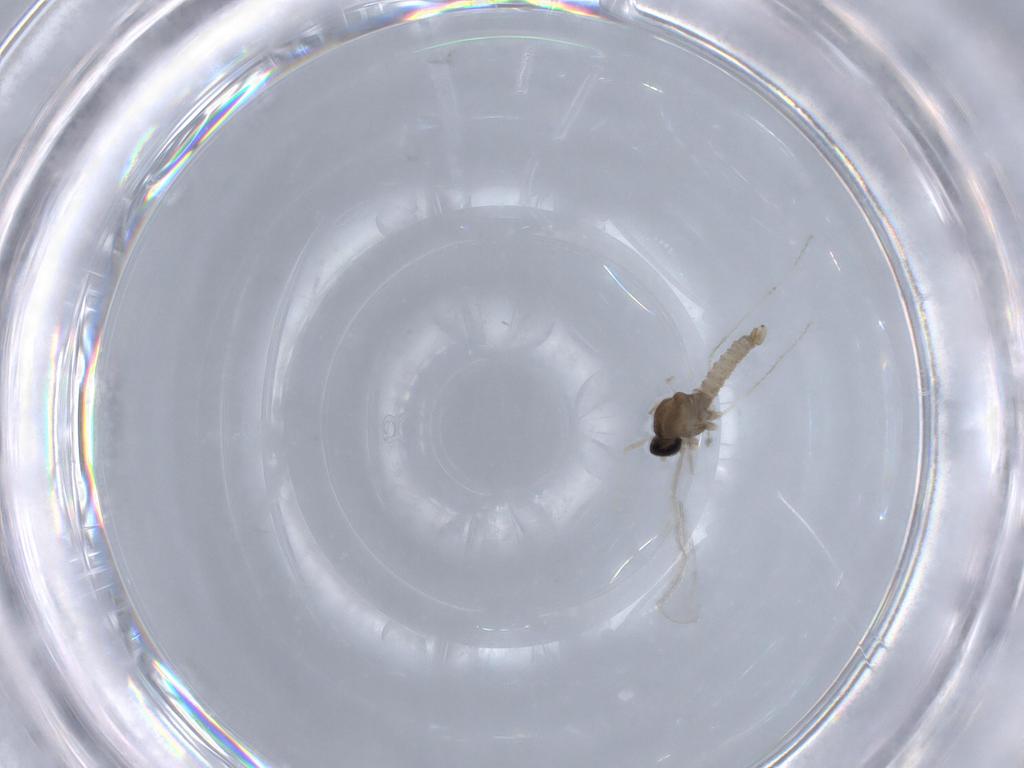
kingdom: Animalia
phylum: Arthropoda
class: Insecta
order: Diptera
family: Cecidomyiidae
